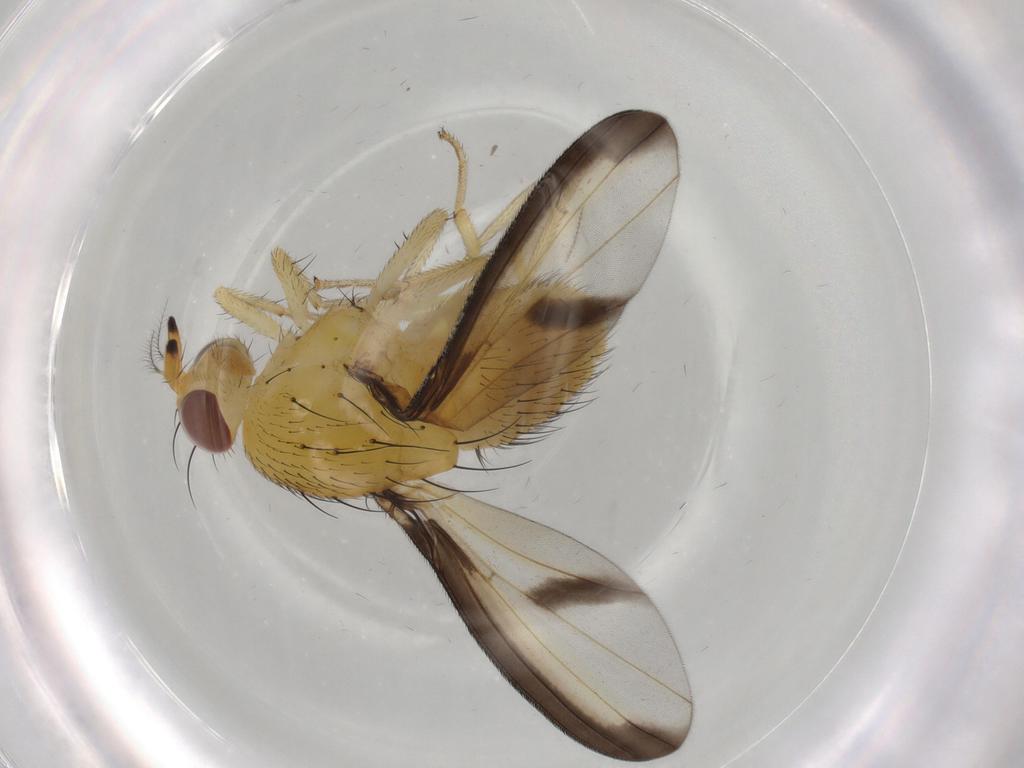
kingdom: Animalia
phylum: Arthropoda
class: Insecta
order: Diptera
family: Lauxaniidae
